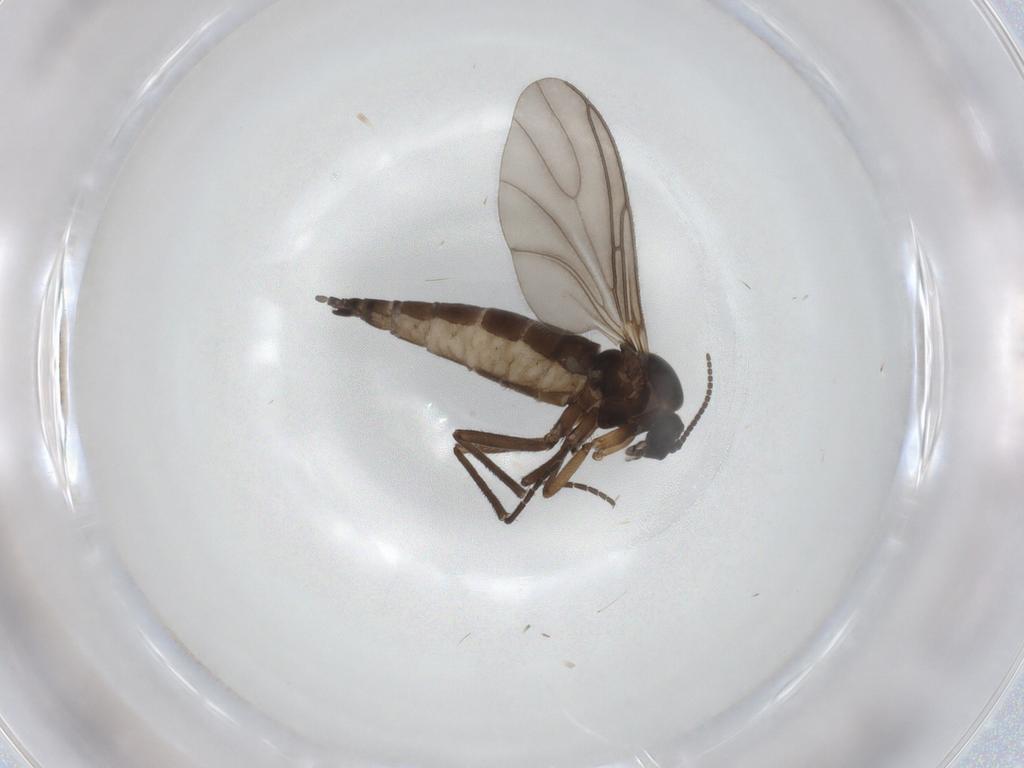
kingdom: Animalia
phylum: Arthropoda
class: Insecta
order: Diptera
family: Sciaridae
